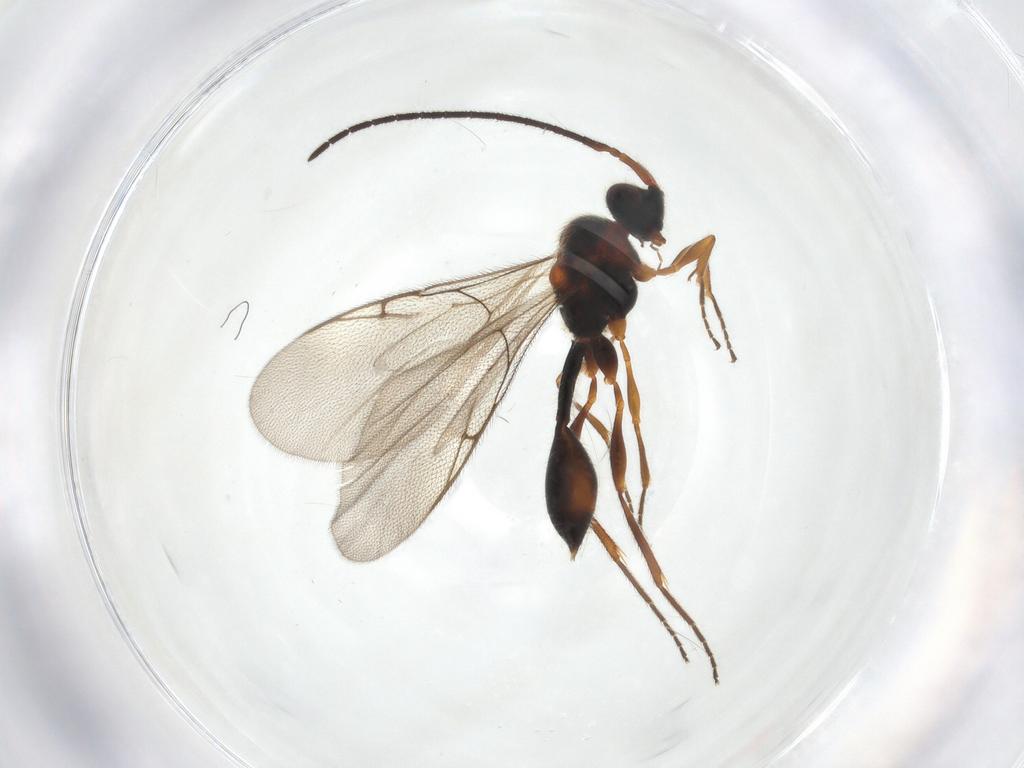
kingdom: Animalia
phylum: Arthropoda
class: Insecta
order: Hymenoptera
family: Diapriidae
